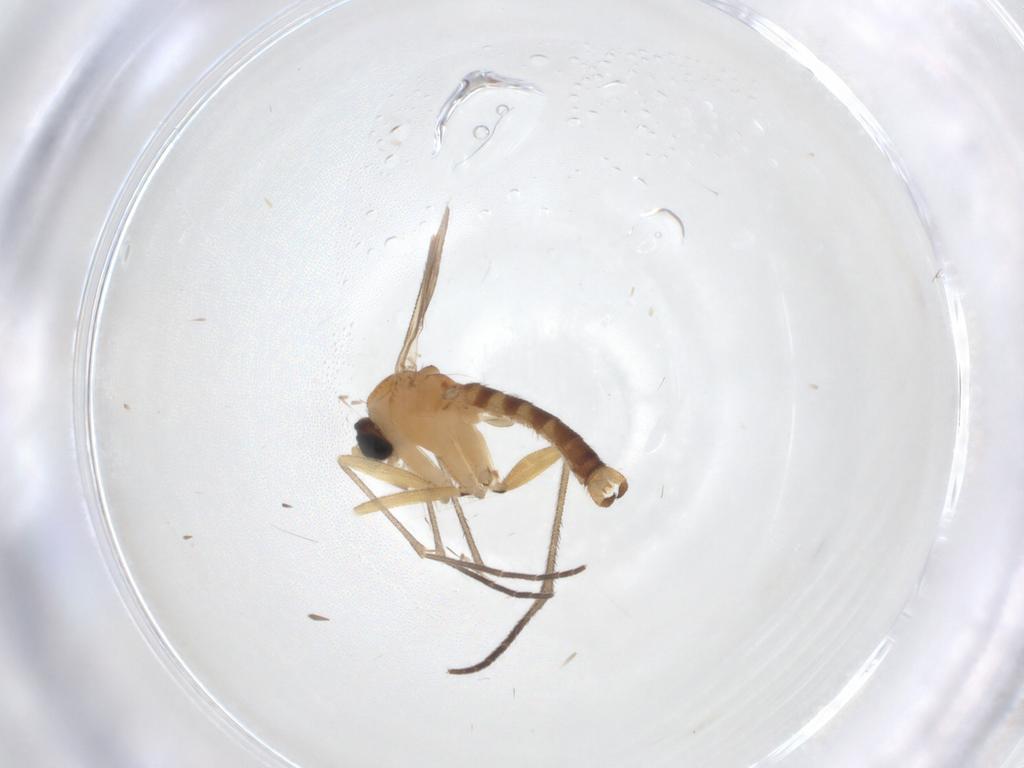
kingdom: Animalia
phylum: Arthropoda
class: Insecta
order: Diptera
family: Sciaridae
